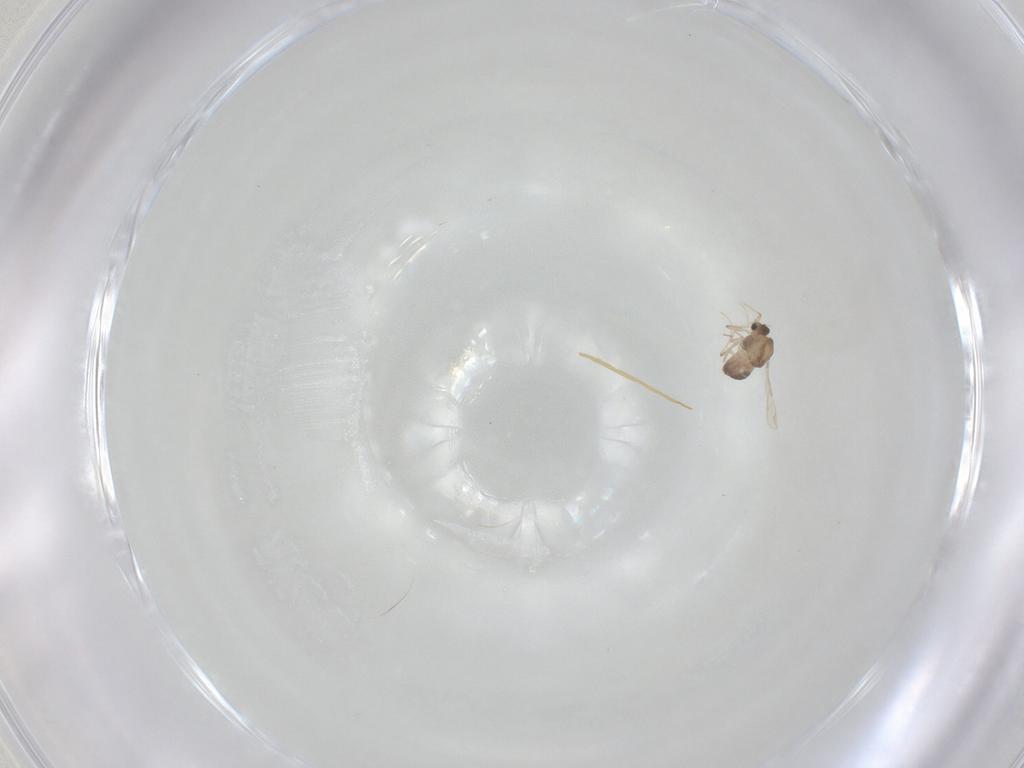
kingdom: Animalia
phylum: Arthropoda
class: Insecta
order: Diptera
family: Chironomidae
